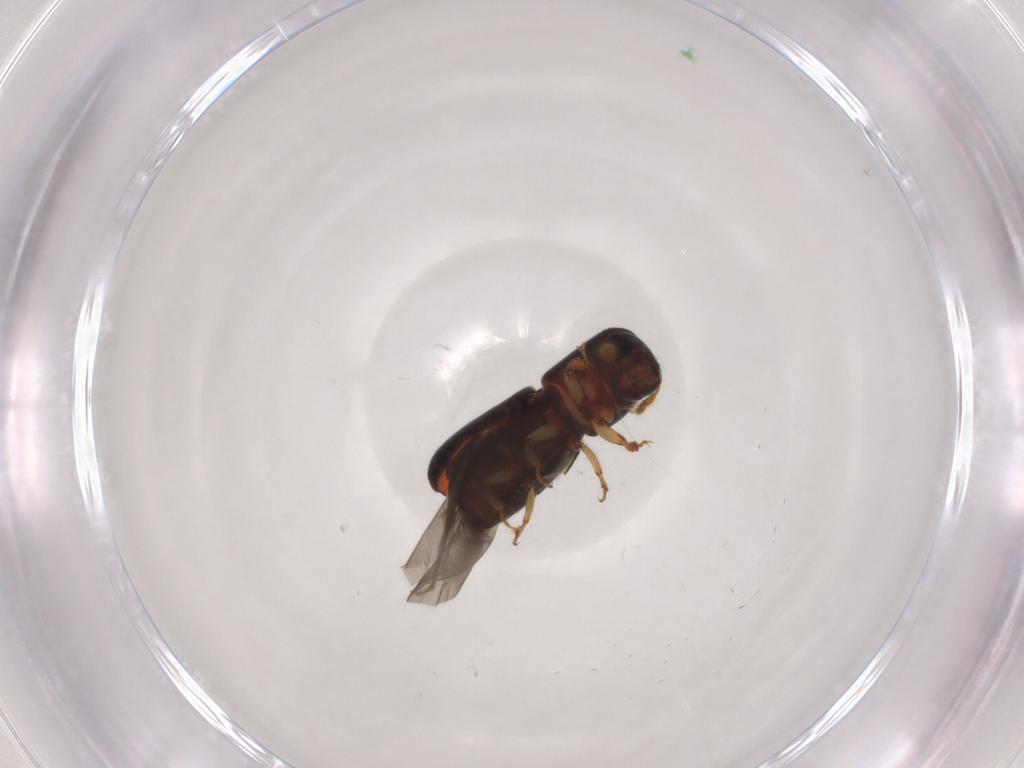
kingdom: Animalia
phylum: Arthropoda
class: Insecta
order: Coleoptera
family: Curculionidae
